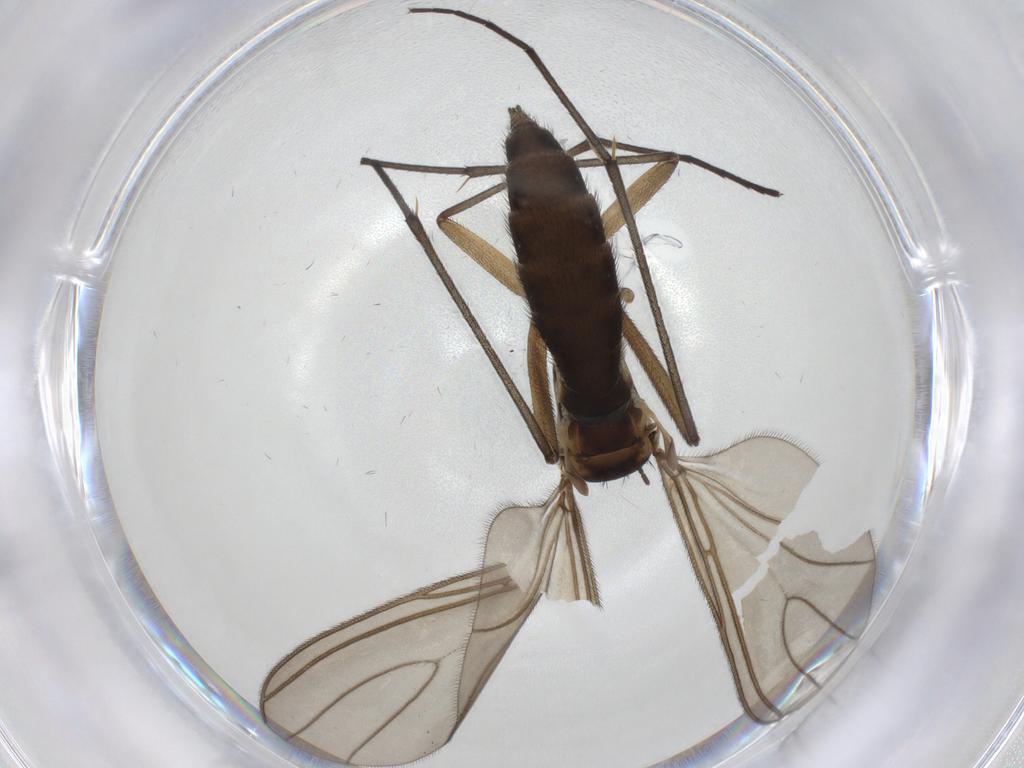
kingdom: Animalia
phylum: Arthropoda
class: Insecta
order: Diptera
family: Sciaridae
